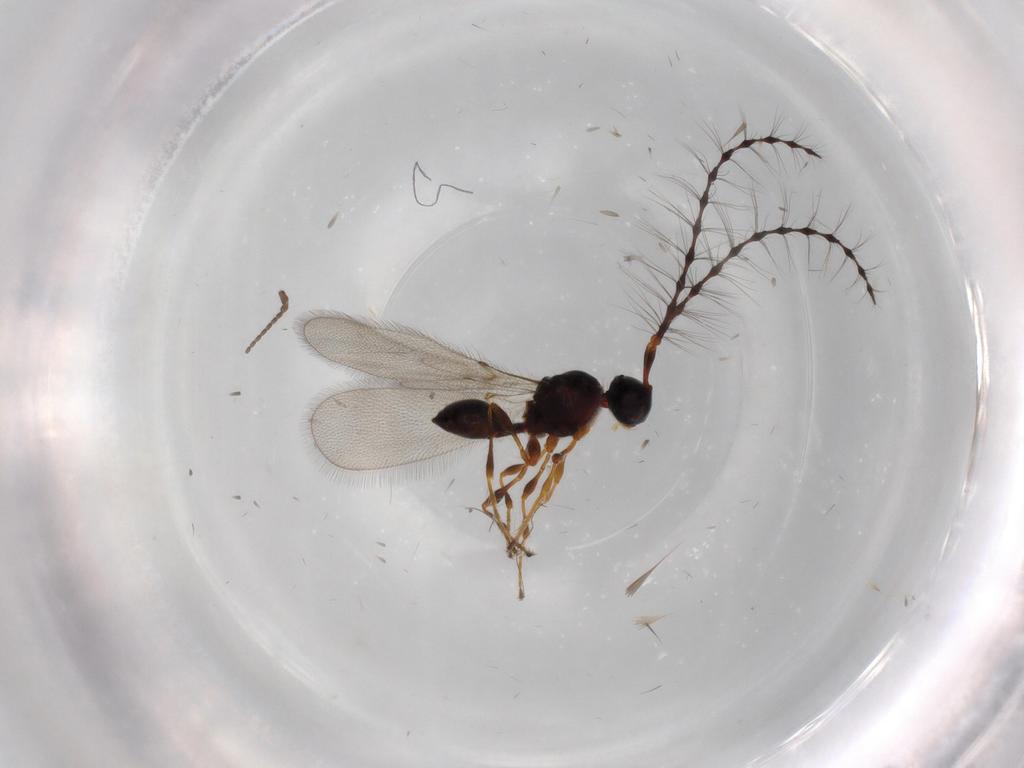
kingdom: Animalia
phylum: Arthropoda
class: Insecta
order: Hymenoptera
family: Diapriidae
